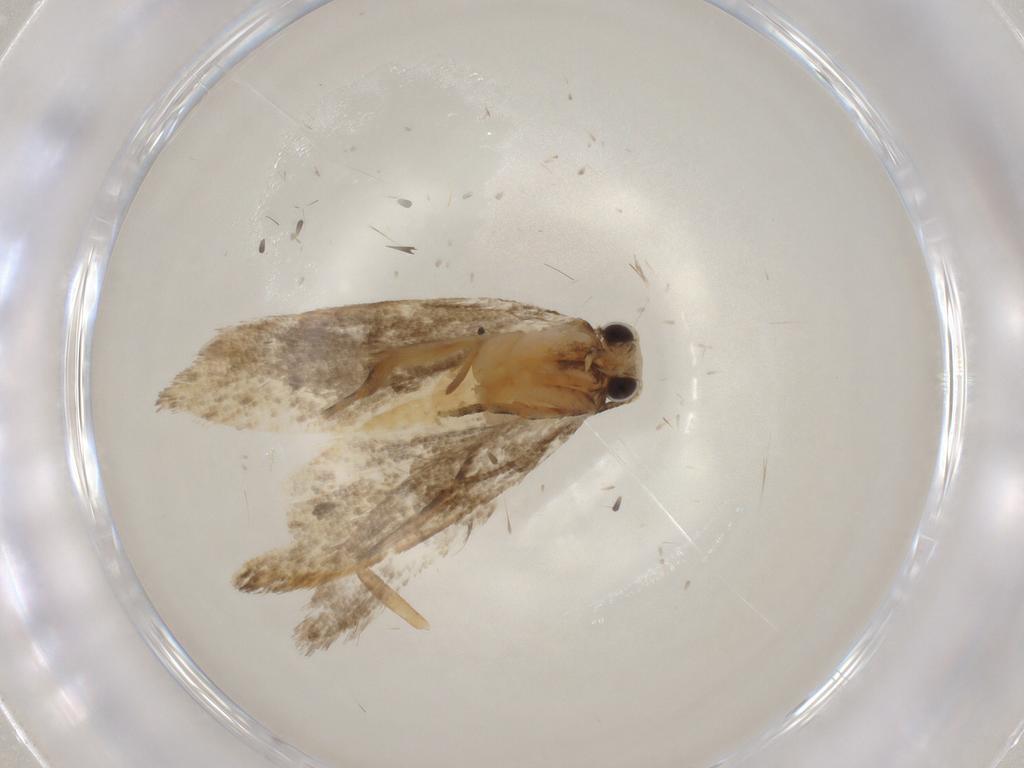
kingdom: Animalia
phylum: Arthropoda
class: Insecta
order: Lepidoptera
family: Tineidae
